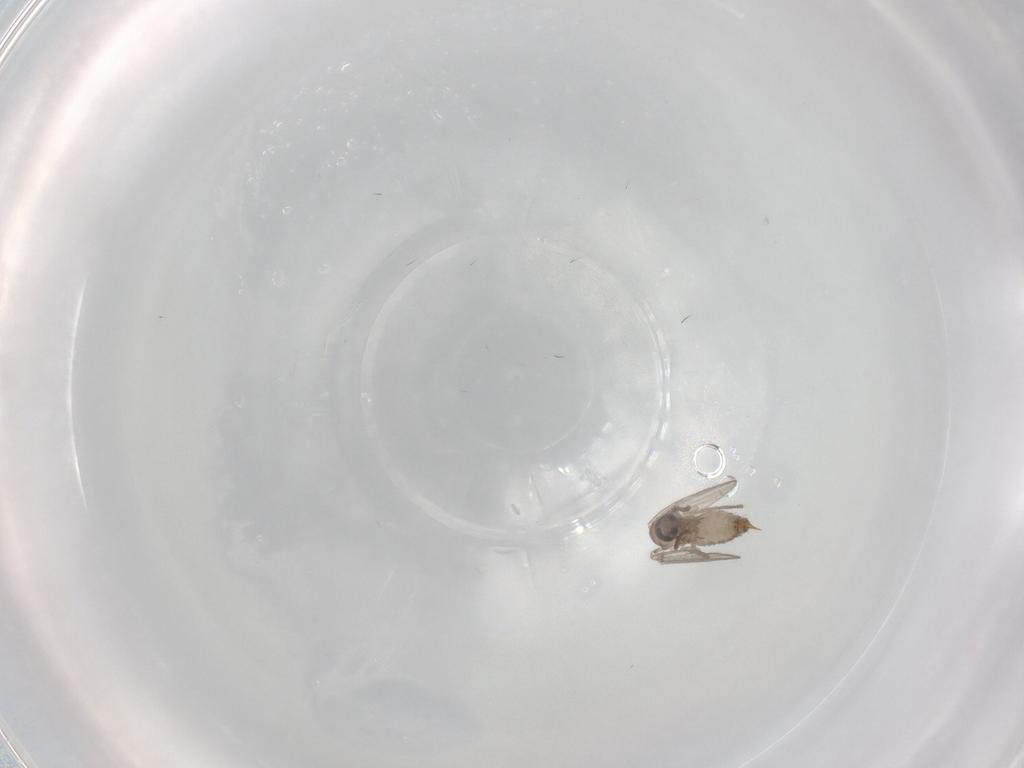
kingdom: Animalia
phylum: Arthropoda
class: Insecta
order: Diptera
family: Psychodidae
